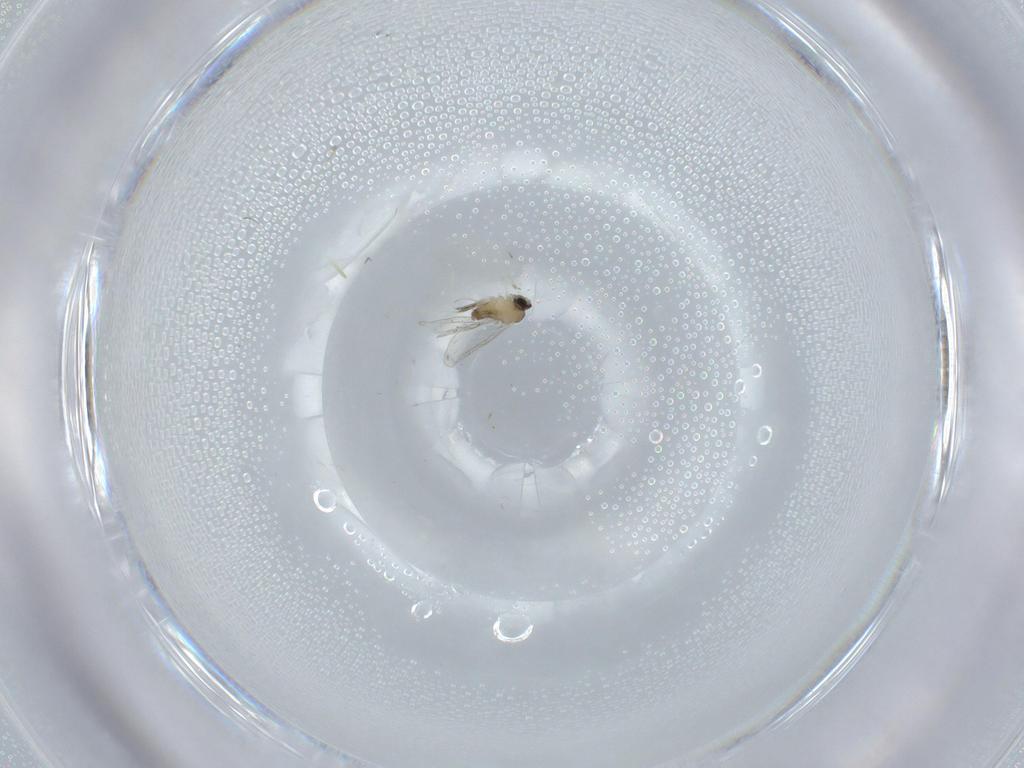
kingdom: Animalia
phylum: Arthropoda
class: Insecta
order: Diptera
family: Cecidomyiidae
